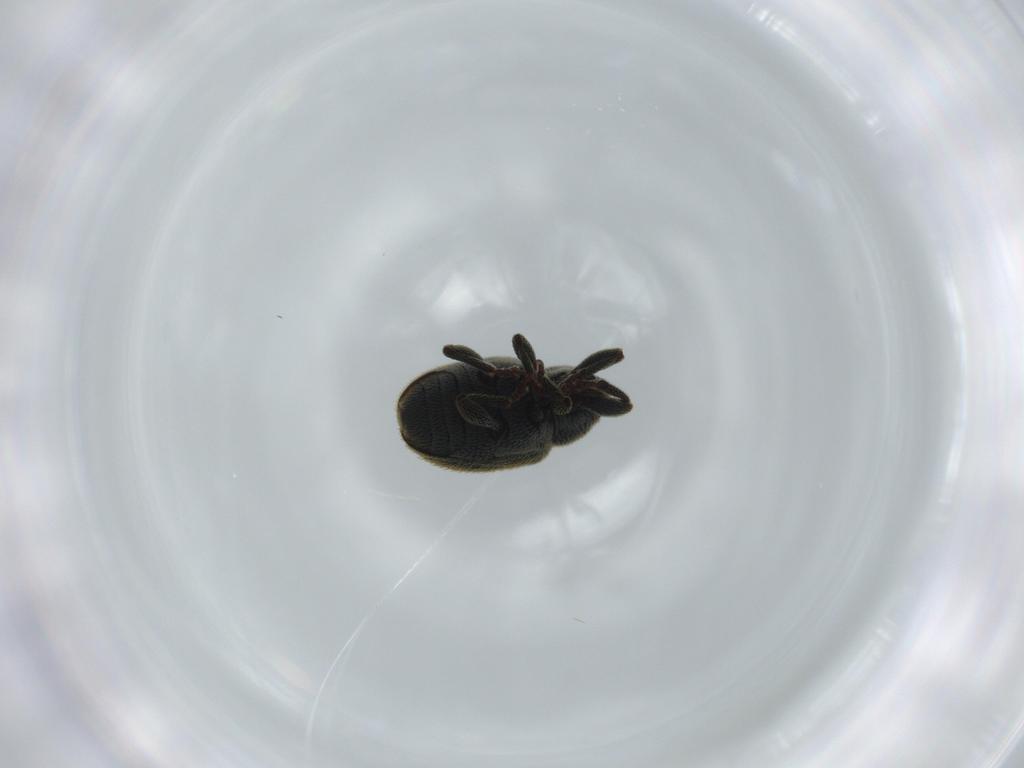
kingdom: Animalia
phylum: Arthropoda
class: Insecta
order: Coleoptera
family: Curculionidae
